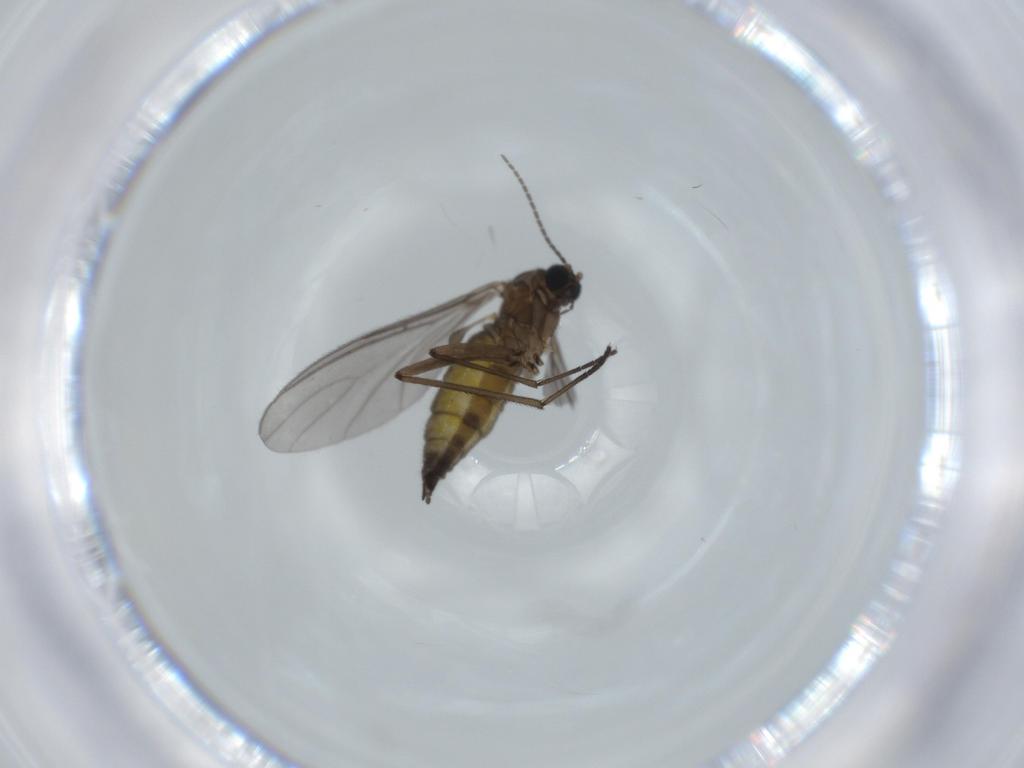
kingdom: Animalia
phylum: Arthropoda
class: Insecta
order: Diptera
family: Sciaridae
